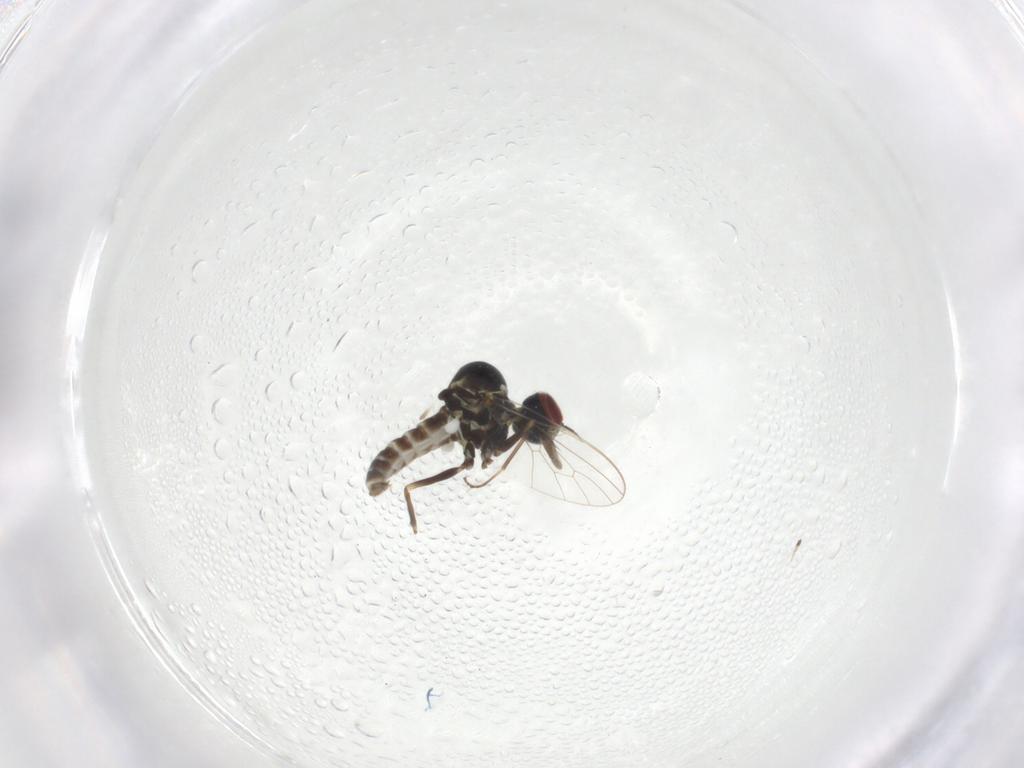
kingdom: Animalia
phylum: Arthropoda
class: Insecta
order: Diptera
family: Bombyliidae
